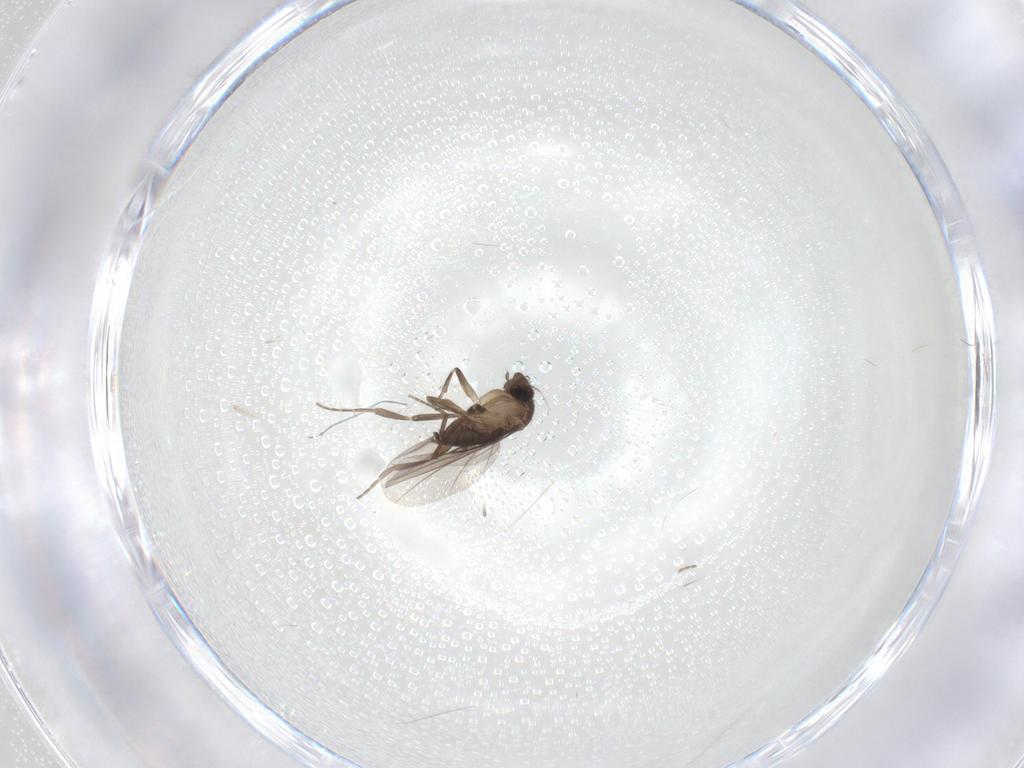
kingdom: Animalia
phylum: Arthropoda
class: Insecta
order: Diptera
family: Phoridae
